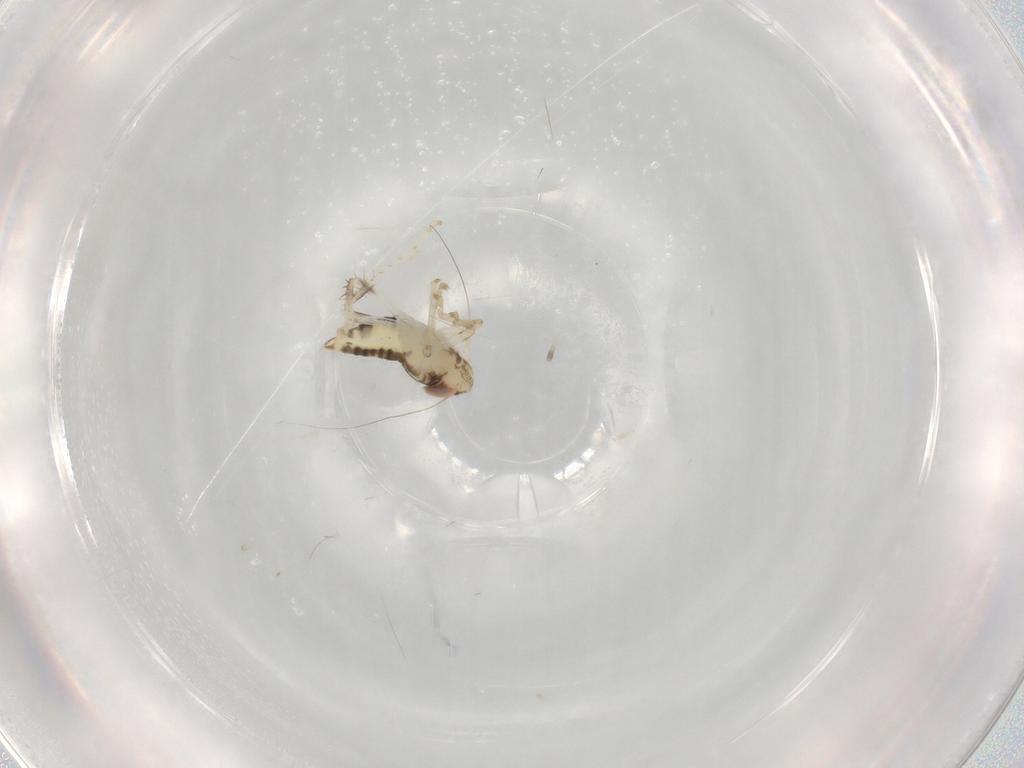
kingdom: Animalia
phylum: Arthropoda
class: Insecta
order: Hemiptera
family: Cicadellidae
